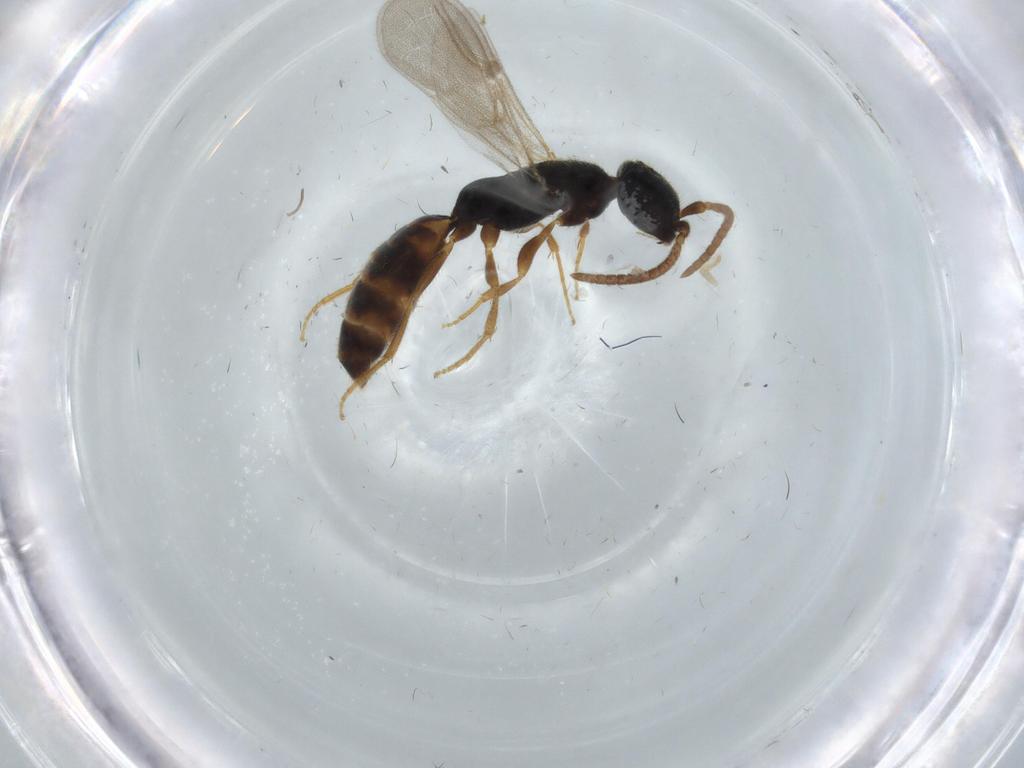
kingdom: Animalia
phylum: Arthropoda
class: Insecta
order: Hymenoptera
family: Bethylidae
